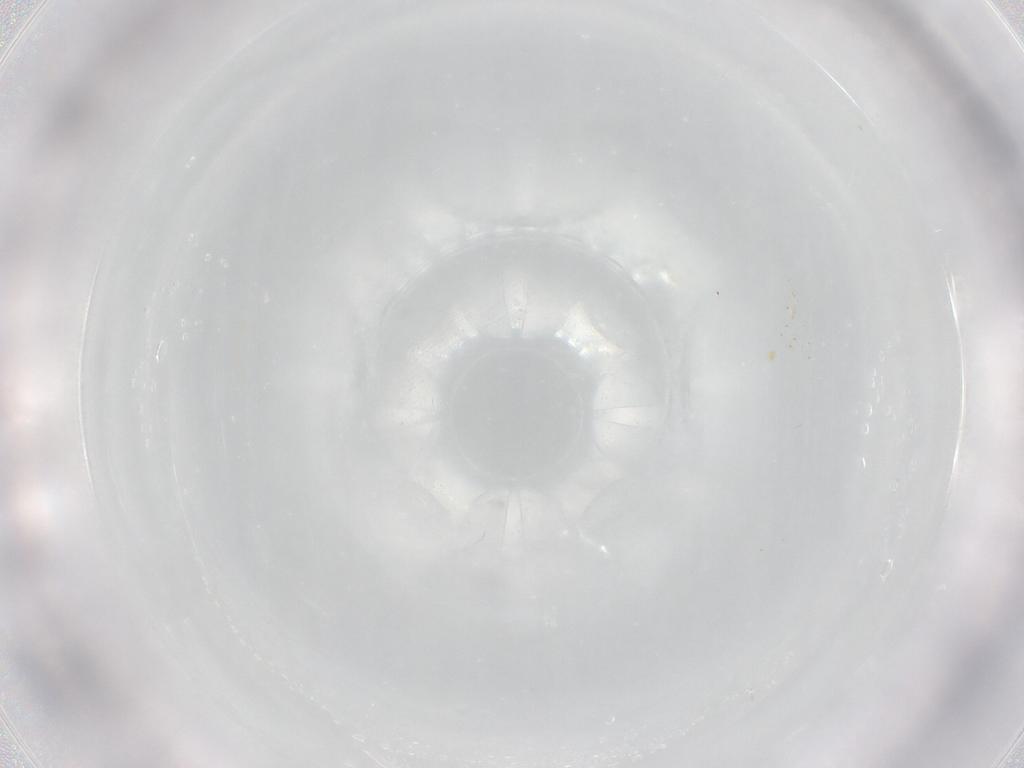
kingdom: Animalia
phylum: Arthropoda
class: Arachnida
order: Trombidiformes
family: Rhagidiidae
